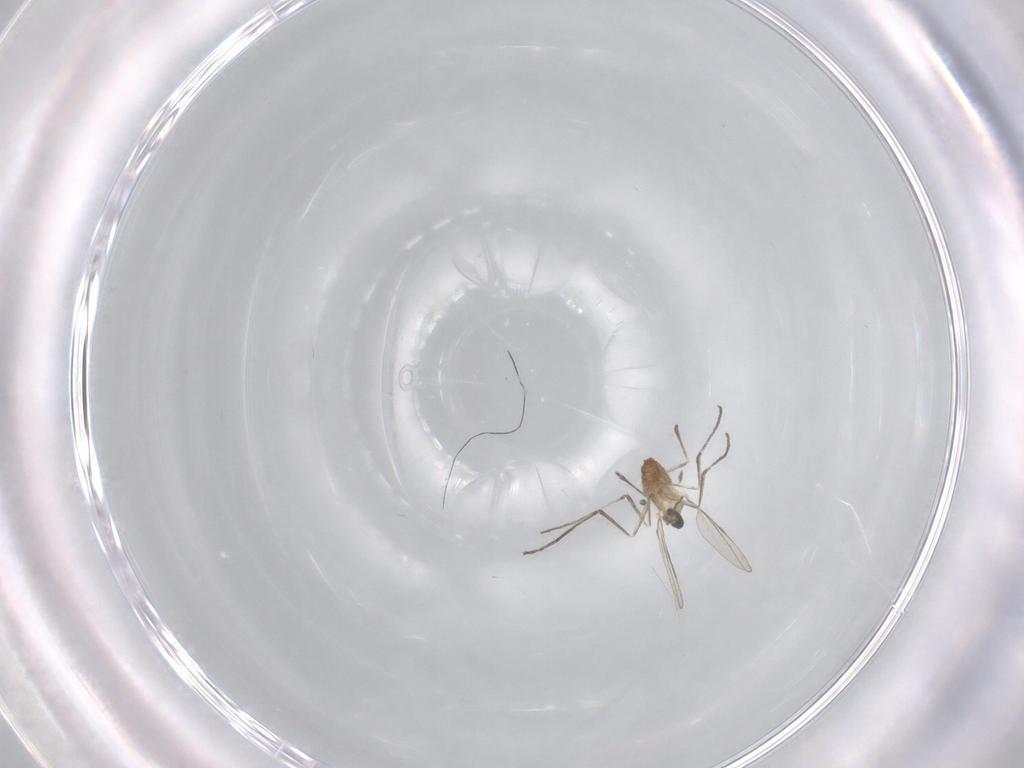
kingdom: Animalia
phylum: Arthropoda
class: Insecta
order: Diptera
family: Cecidomyiidae
